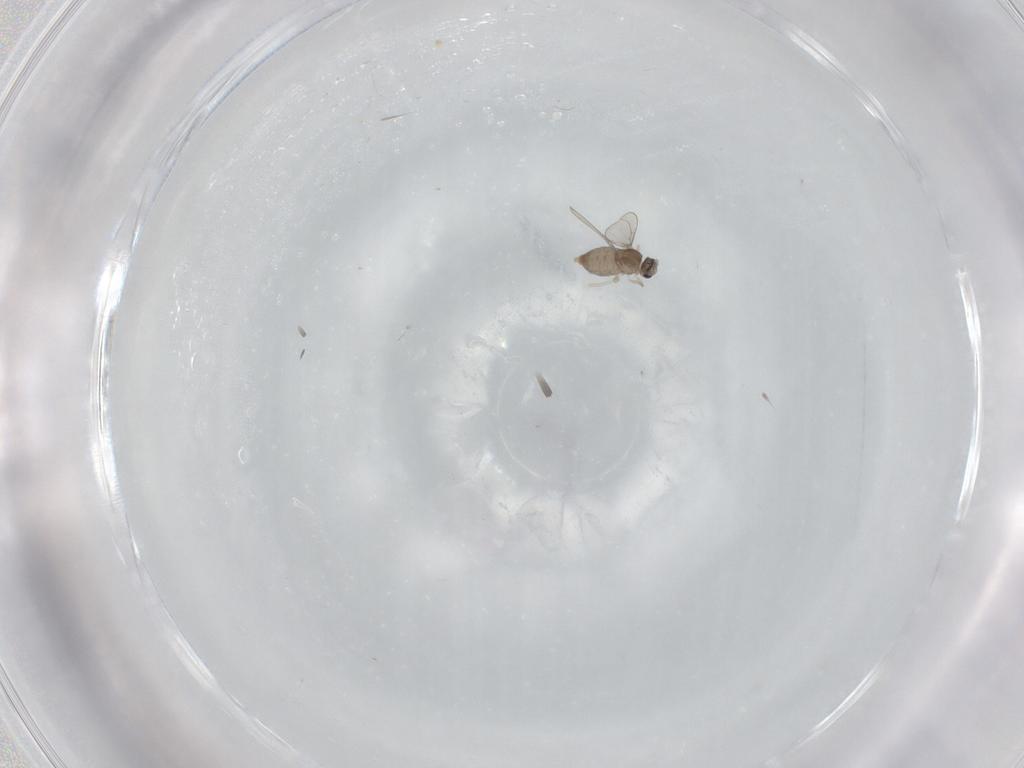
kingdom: Animalia
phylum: Arthropoda
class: Insecta
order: Diptera
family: Cecidomyiidae
